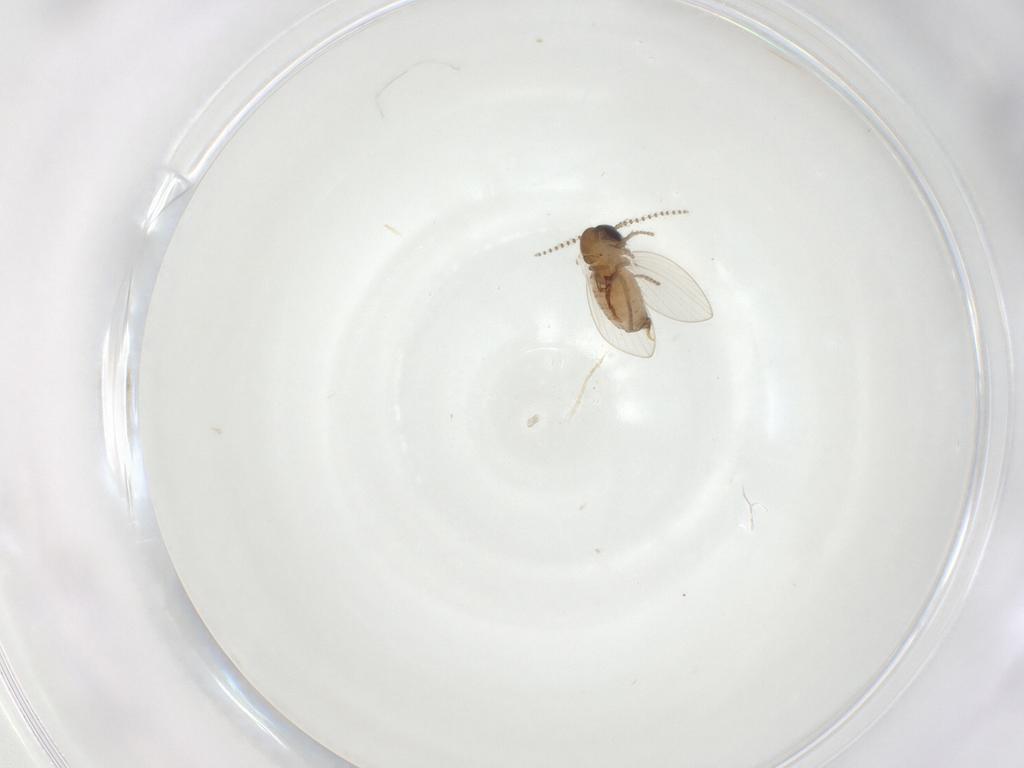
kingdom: Animalia
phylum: Arthropoda
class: Insecta
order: Diptera
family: Psychodidae
